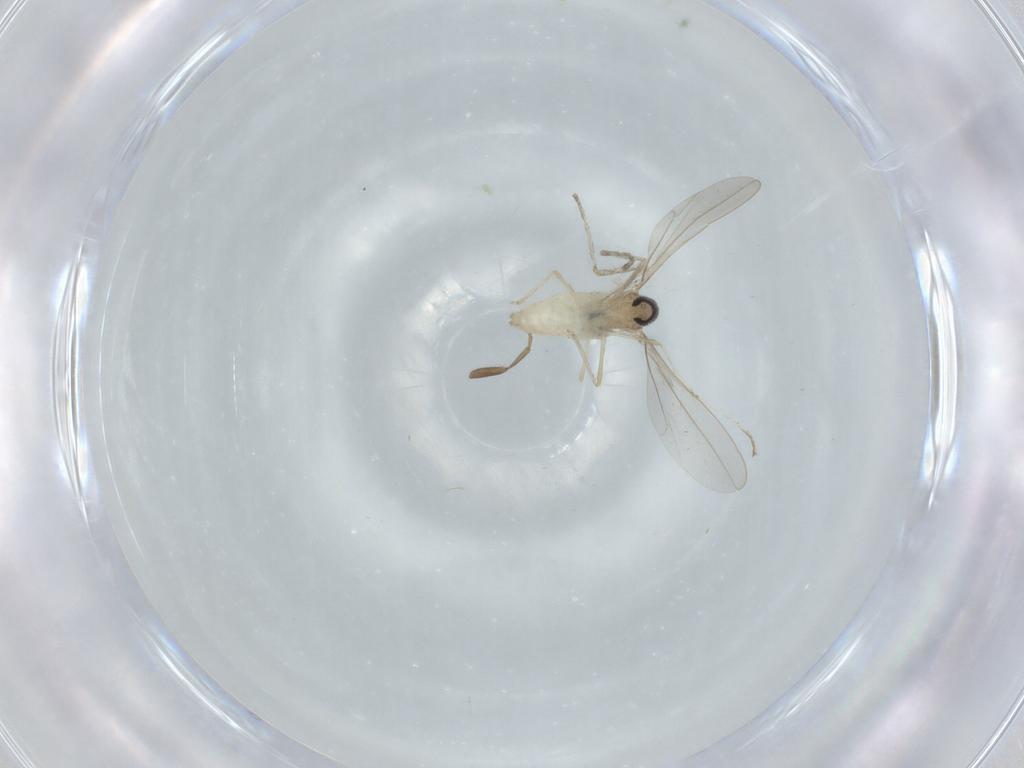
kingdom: Animalia
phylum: Arthropoda
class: Insecta
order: Diptera
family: Cecidomyiidae
